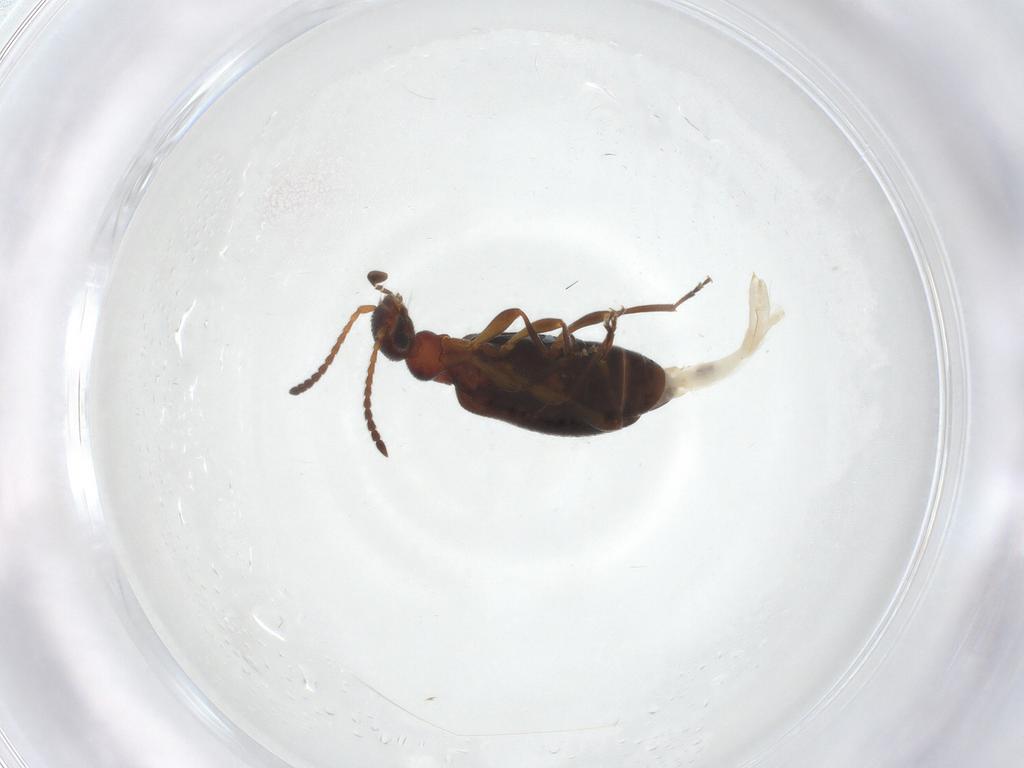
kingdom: Animalia
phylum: Arthropoda
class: Insecta
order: Coleoptera
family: Anthicidae
